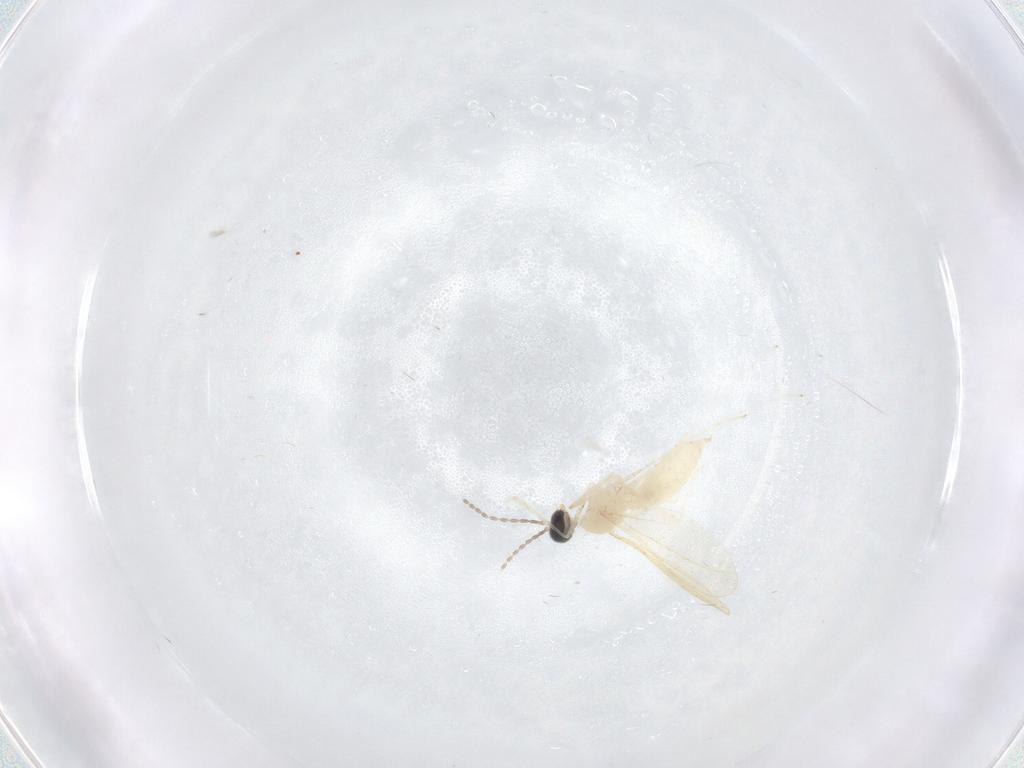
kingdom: Animalia
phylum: Arthropoda
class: Insecta
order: Diptera
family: Cecidomyiidae
